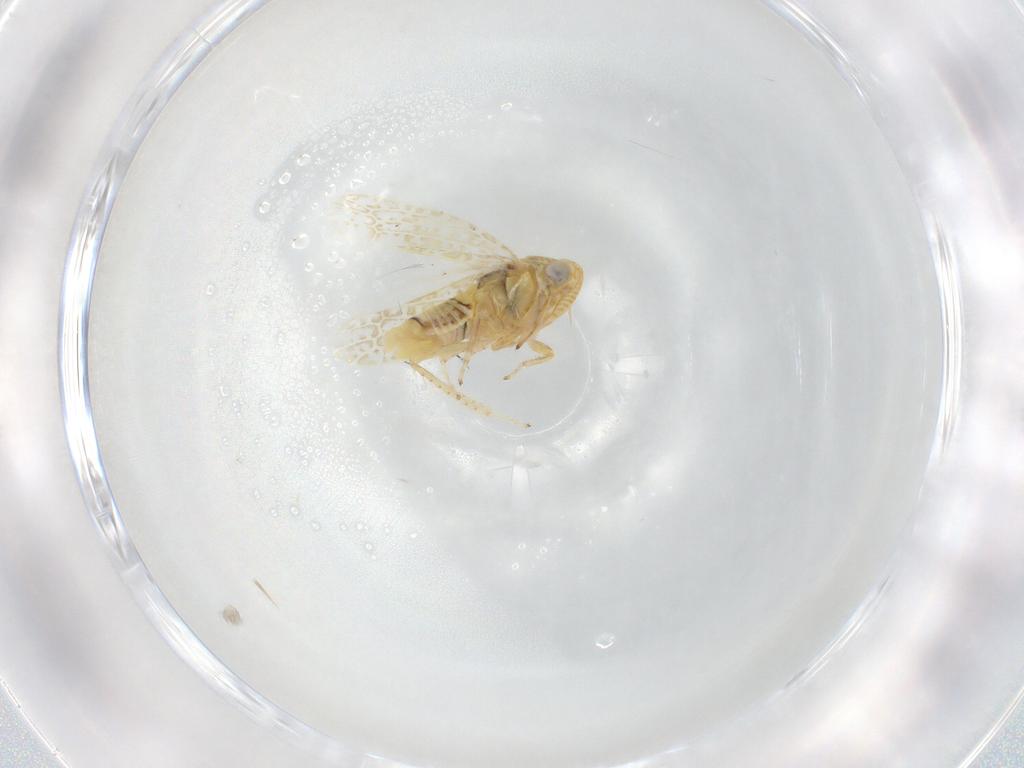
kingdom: Animalia
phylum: Arthropoda
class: Insecta
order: Hemiptera
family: Cicadellidae
